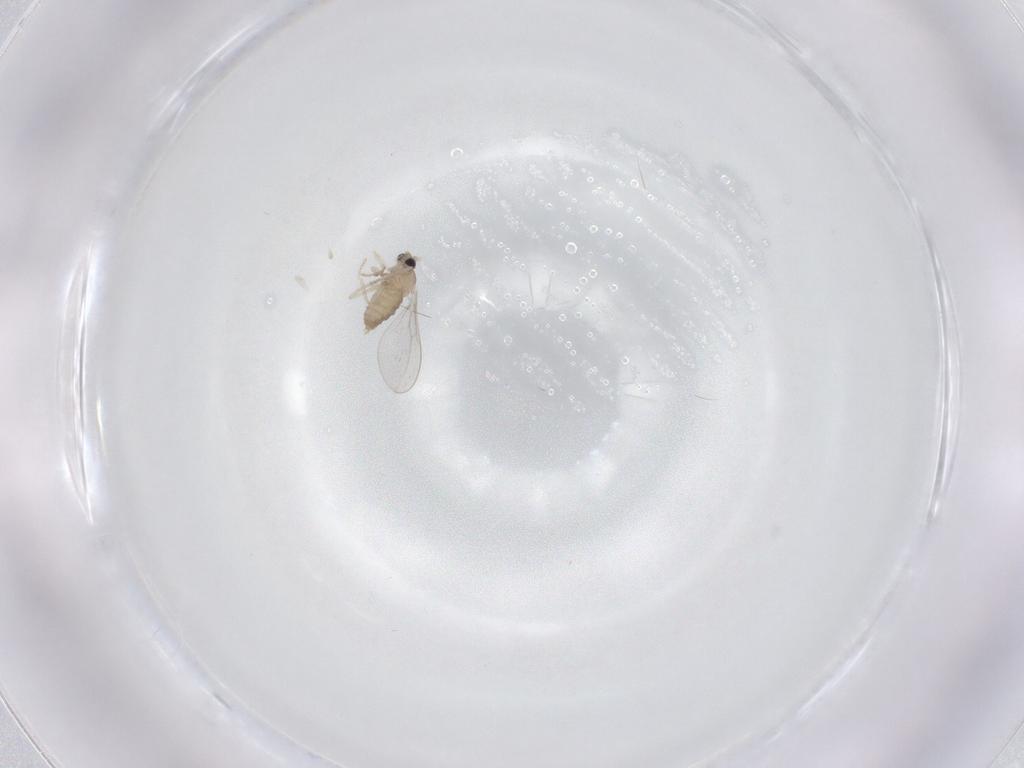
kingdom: Animalia
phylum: Arthropoda
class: Insecta
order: Diptera
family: Cecidomyiidae
